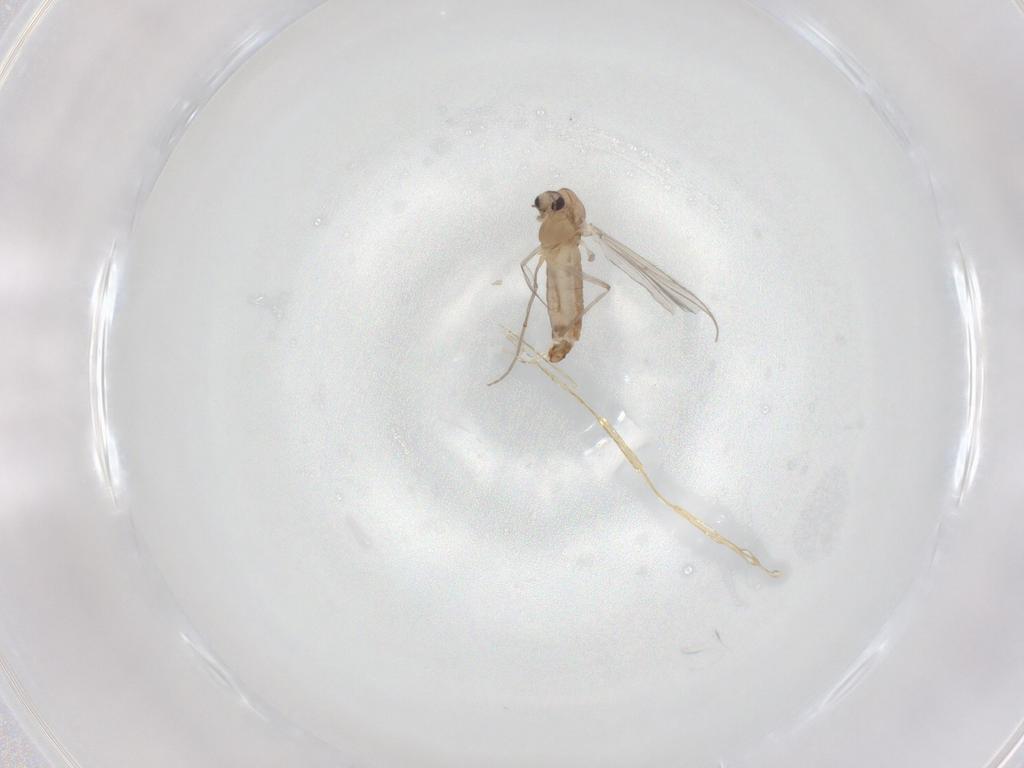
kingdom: Animalia
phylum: Arthropoda
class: Insecta
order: Diptera
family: Chironomidae
